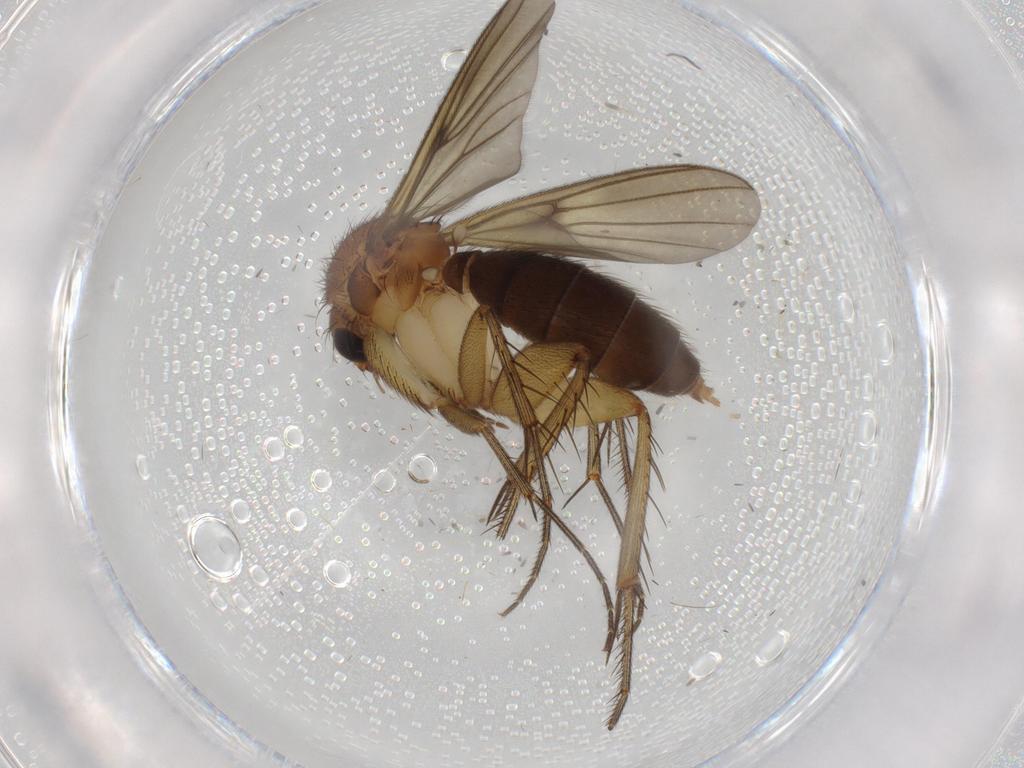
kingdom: Animalia
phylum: Arthropoda
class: Insecta
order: Diptera
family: Mycetophilidae
